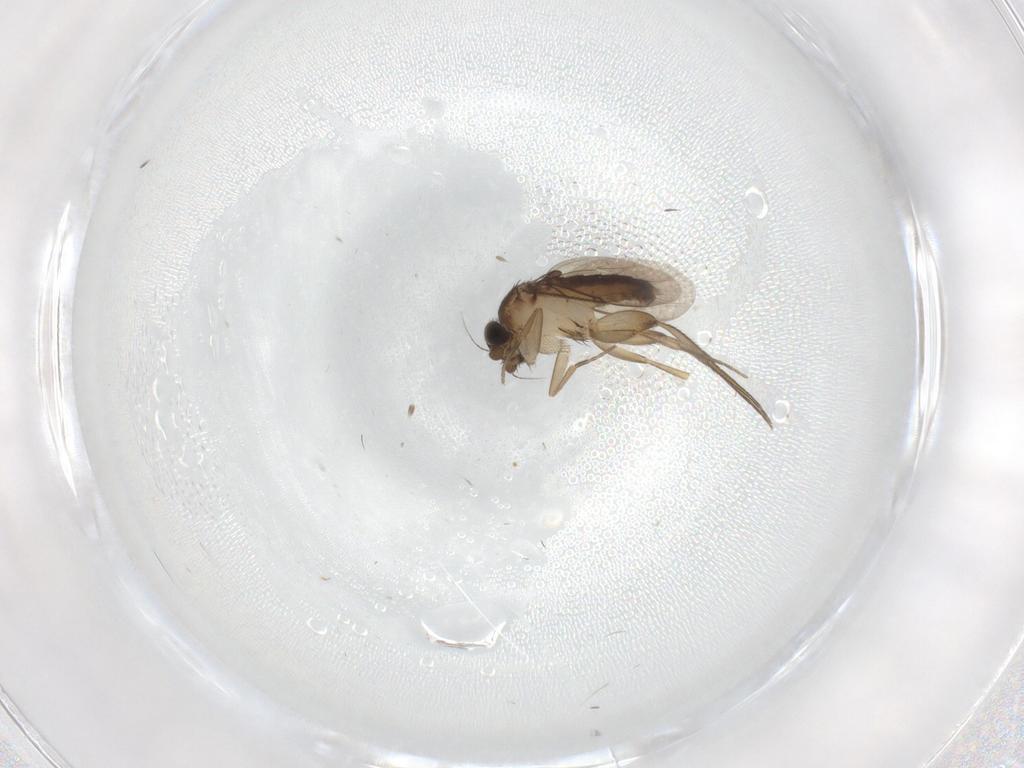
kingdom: Animalia
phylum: Arthropoda
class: Insecta
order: Diptera
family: Phoridae
